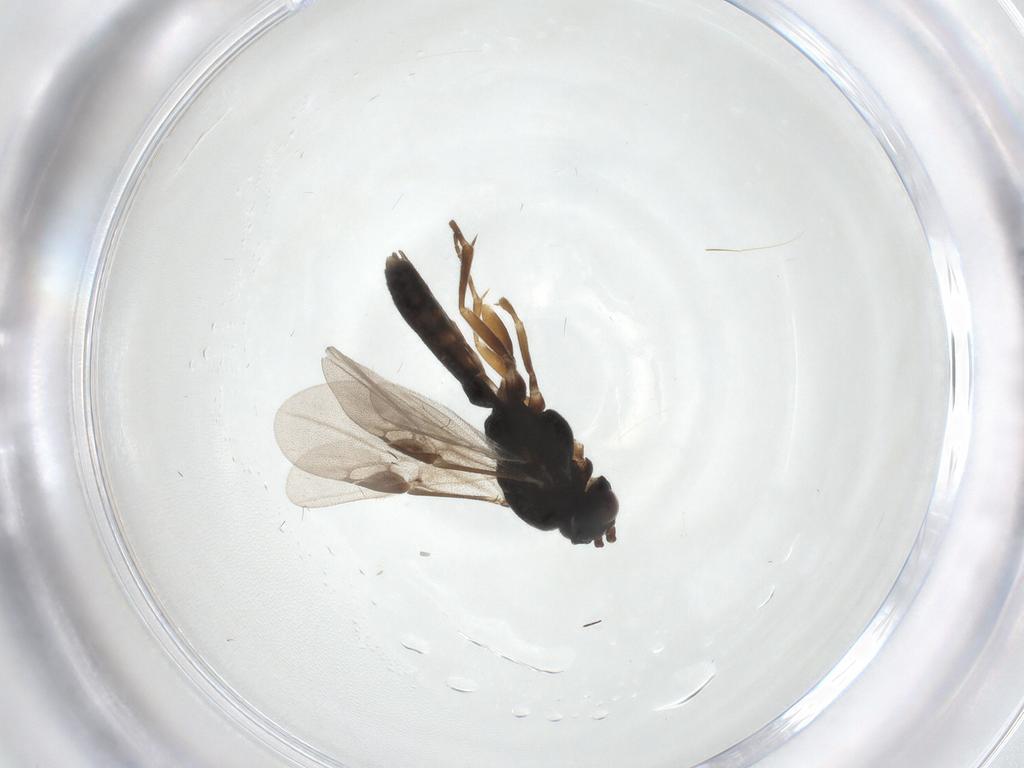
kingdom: Animalia
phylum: Arthropoda
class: Insecta
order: Hymenoptera
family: Braconidae
